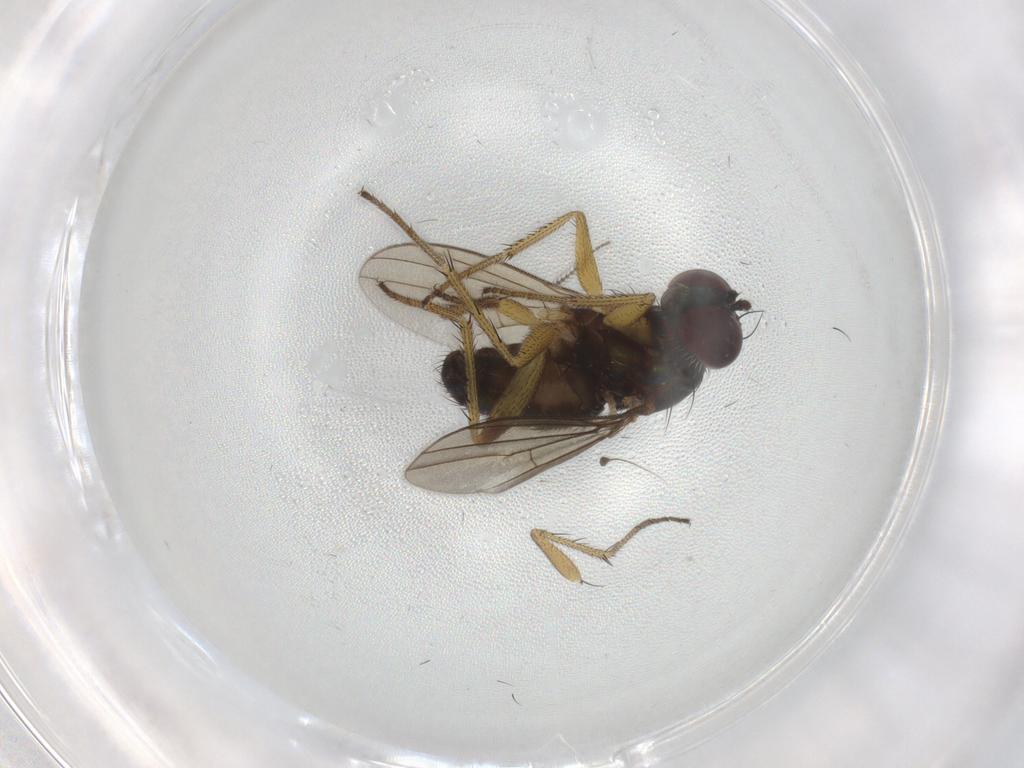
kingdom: Animalia
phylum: Arthropoda
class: Insecta
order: Diptera
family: Dolichopodidae
